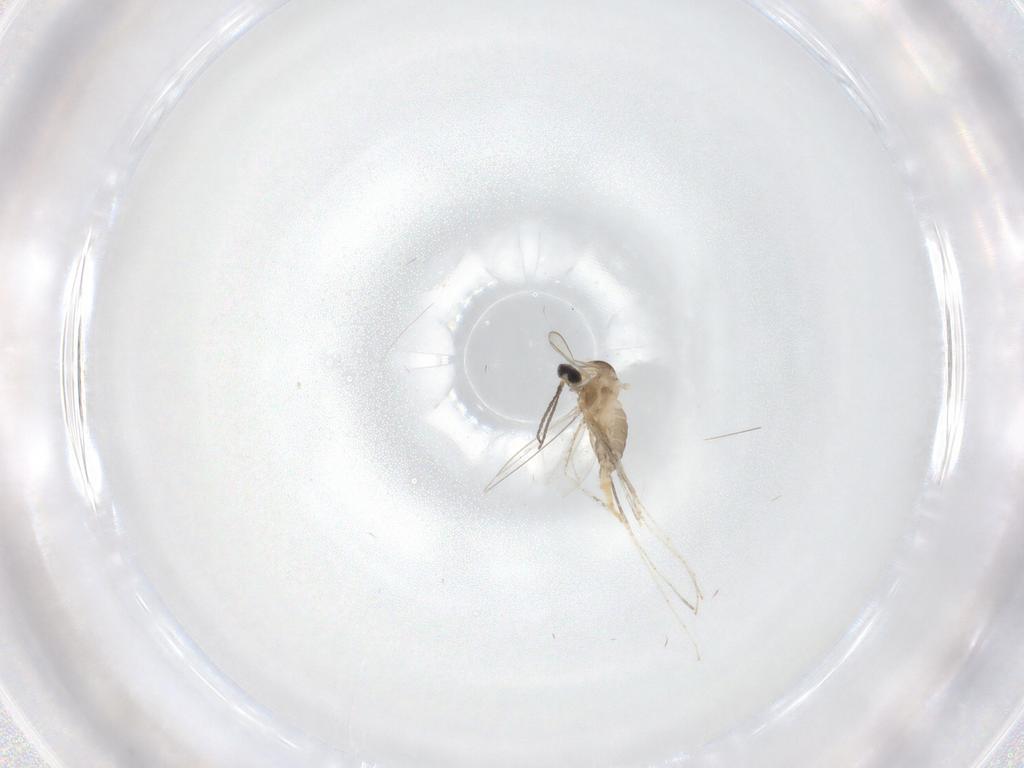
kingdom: Animalia
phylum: Arthropoda
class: Insecta
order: Diptera
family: Cecidomyiidae
